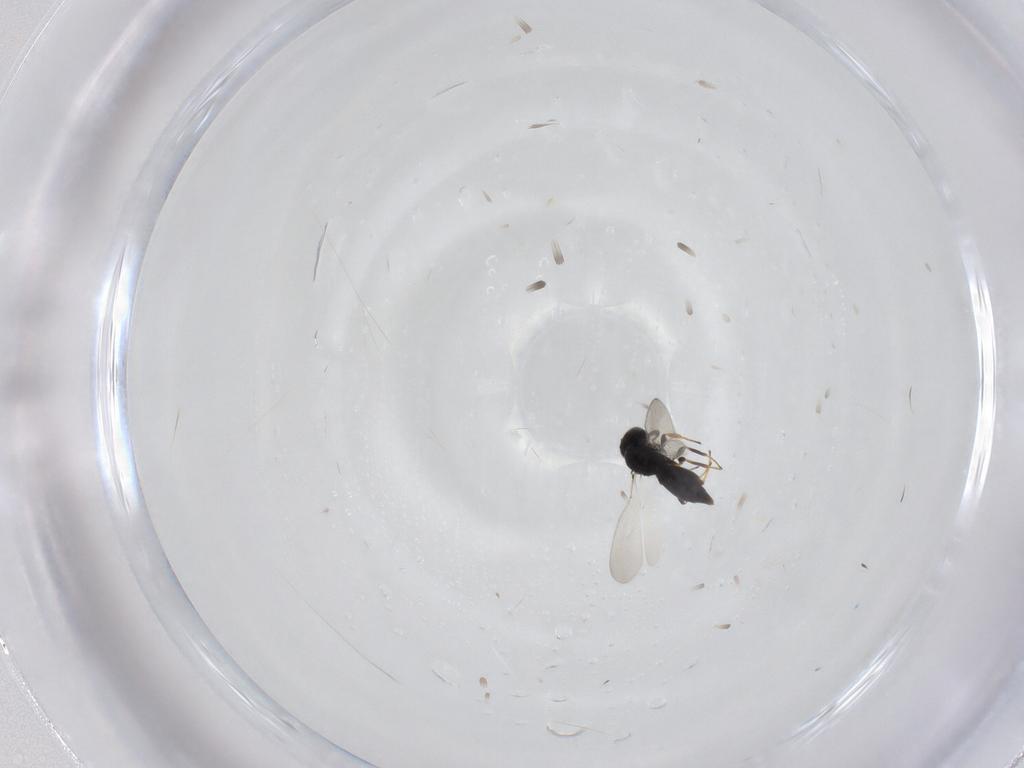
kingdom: Animalia
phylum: Arthropoda
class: Insecta
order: Hymenoptera
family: Platygastridae
